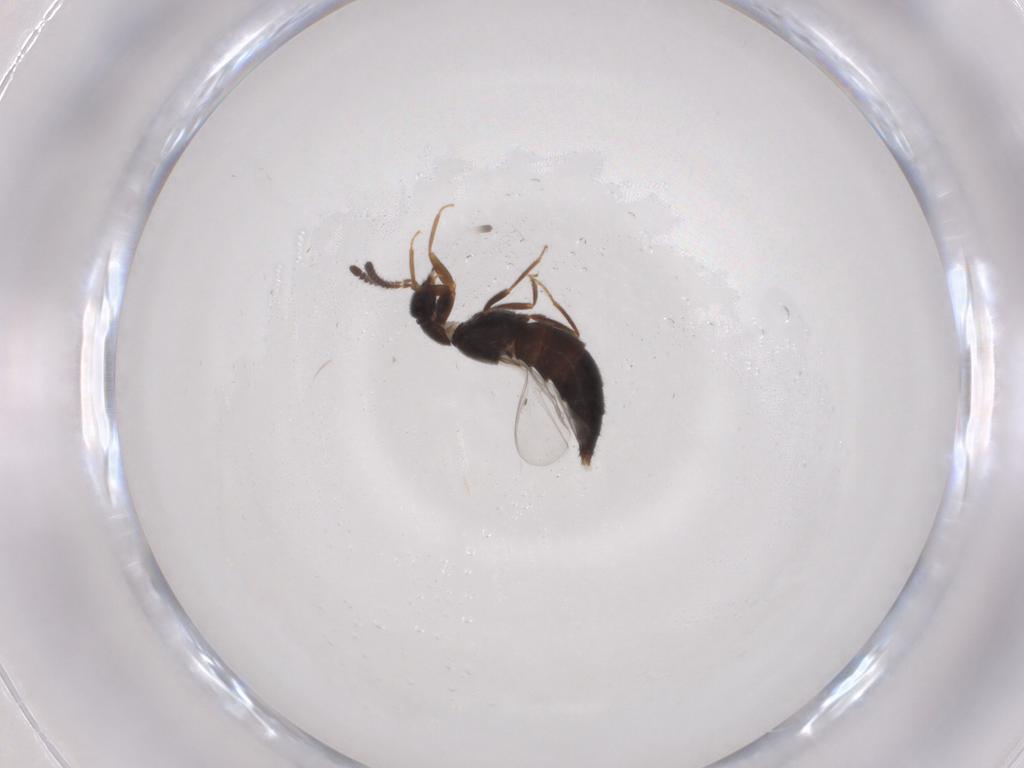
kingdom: Animalia
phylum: Arthropoda
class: Insecta
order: Coleoptera
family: Staphylinidae
